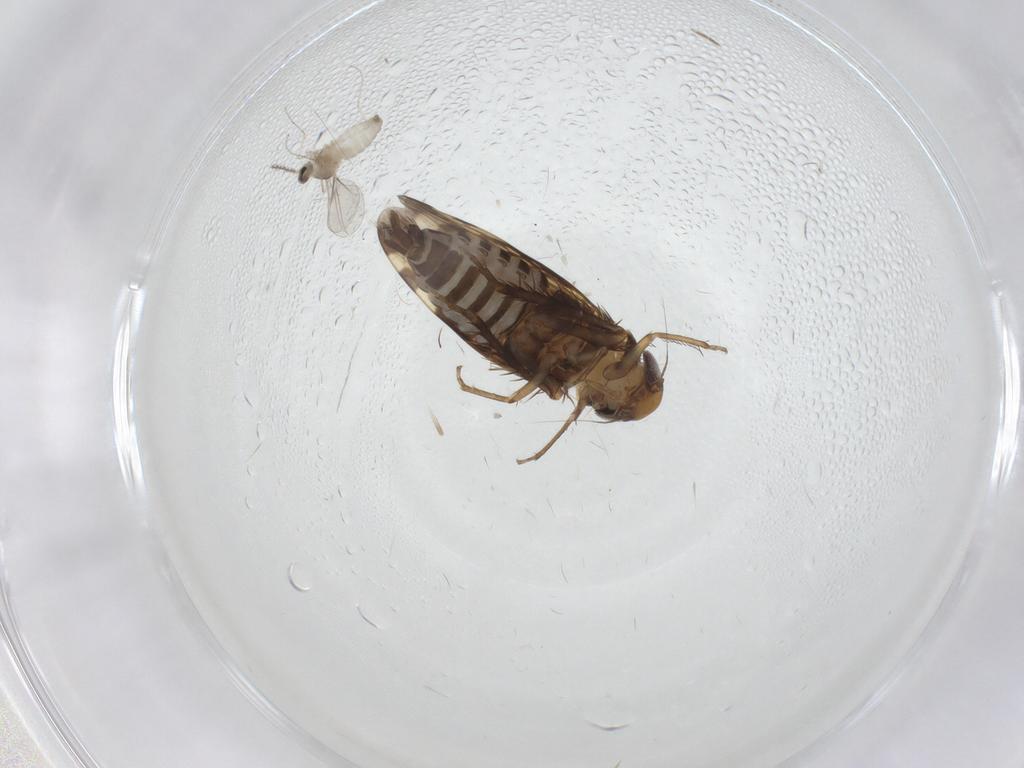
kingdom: Animalia
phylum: Arthropoda
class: Insecta
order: Hemiptera
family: Cicadellidae
